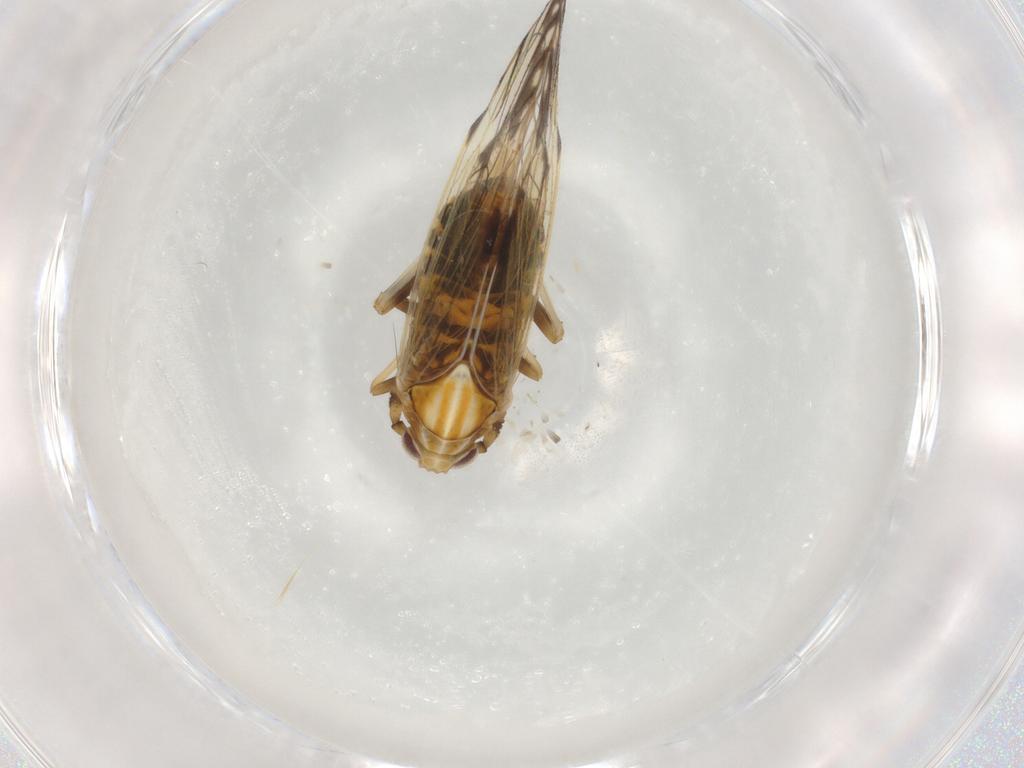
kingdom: Animalia
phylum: Arthropoda
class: Insecta
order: Hemiptera
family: Delphacidae
